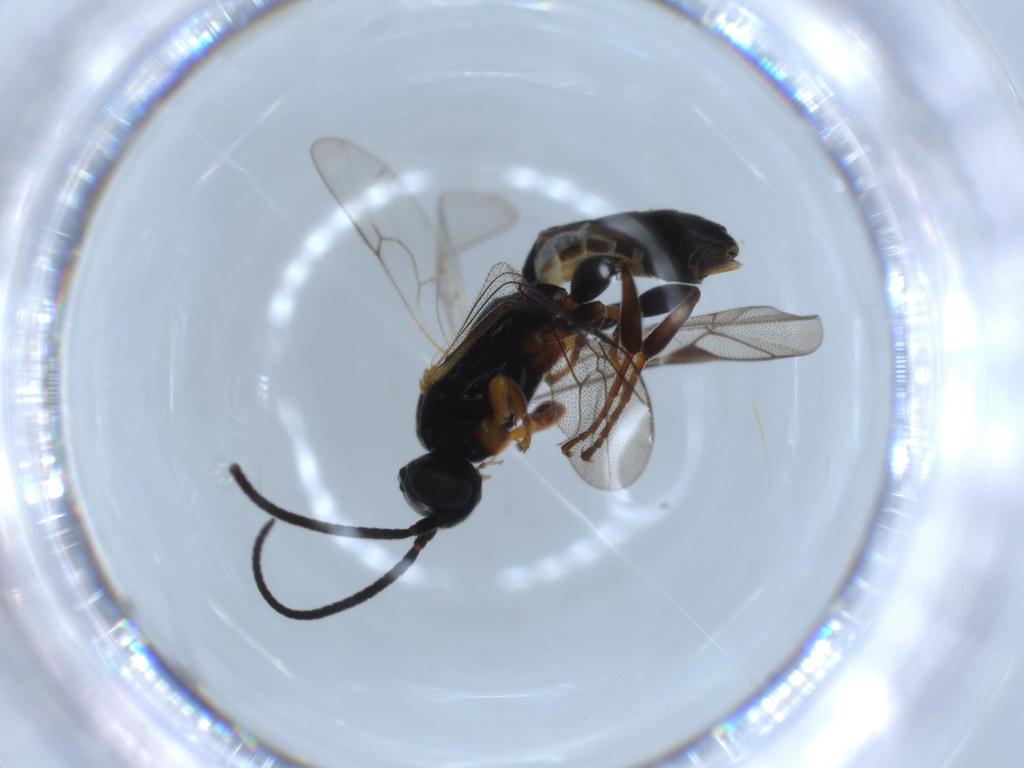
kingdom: Animalia
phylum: Arthropoda
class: Insecta
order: Hymenoptera
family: Ichneumonidae
